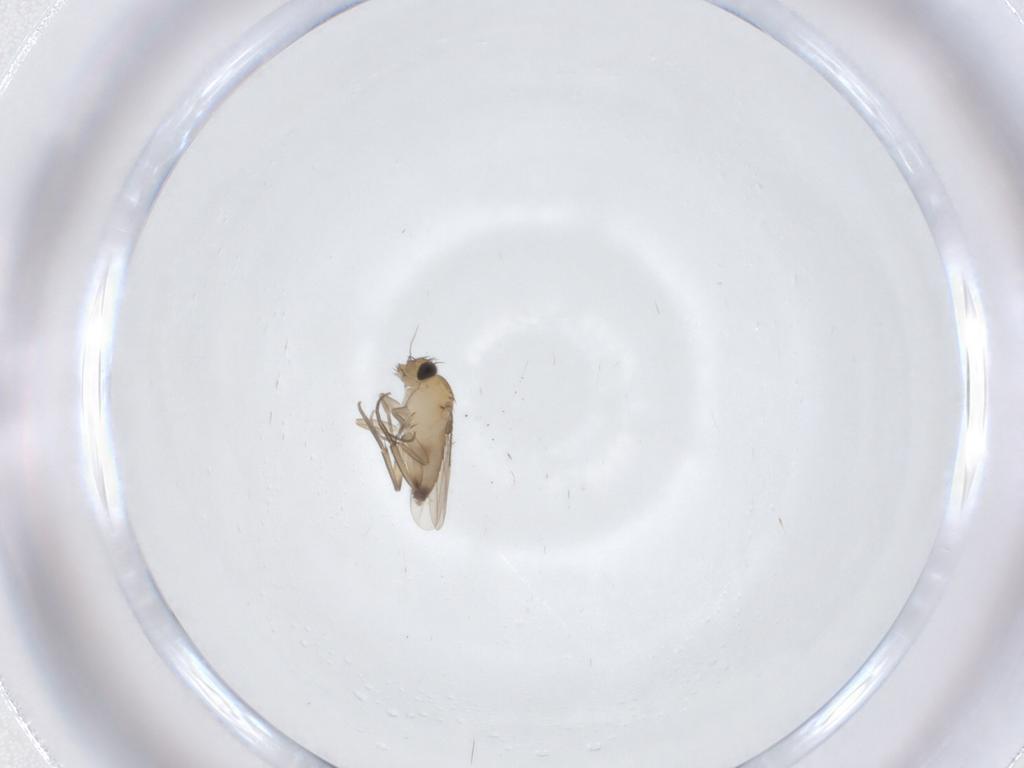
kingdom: Animalia
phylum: Arthropoda
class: Insecta
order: Diptera
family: Phoridae
